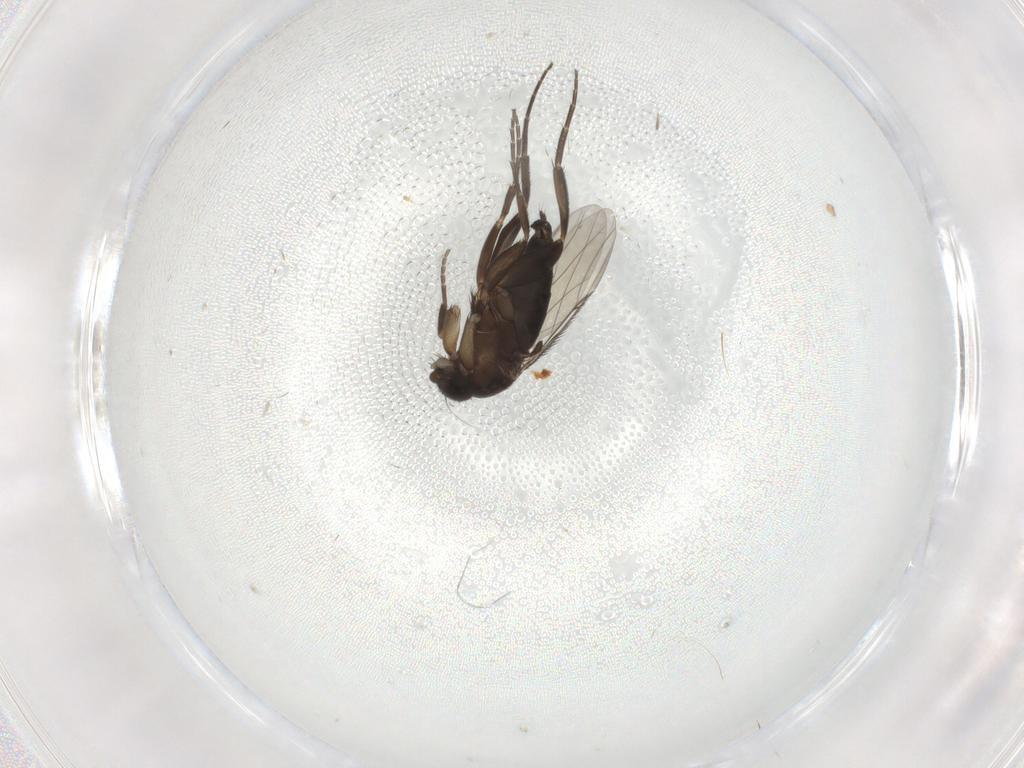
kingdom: Animalia
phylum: Arthropoda
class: Insecta
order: Diptera
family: Phoridae
